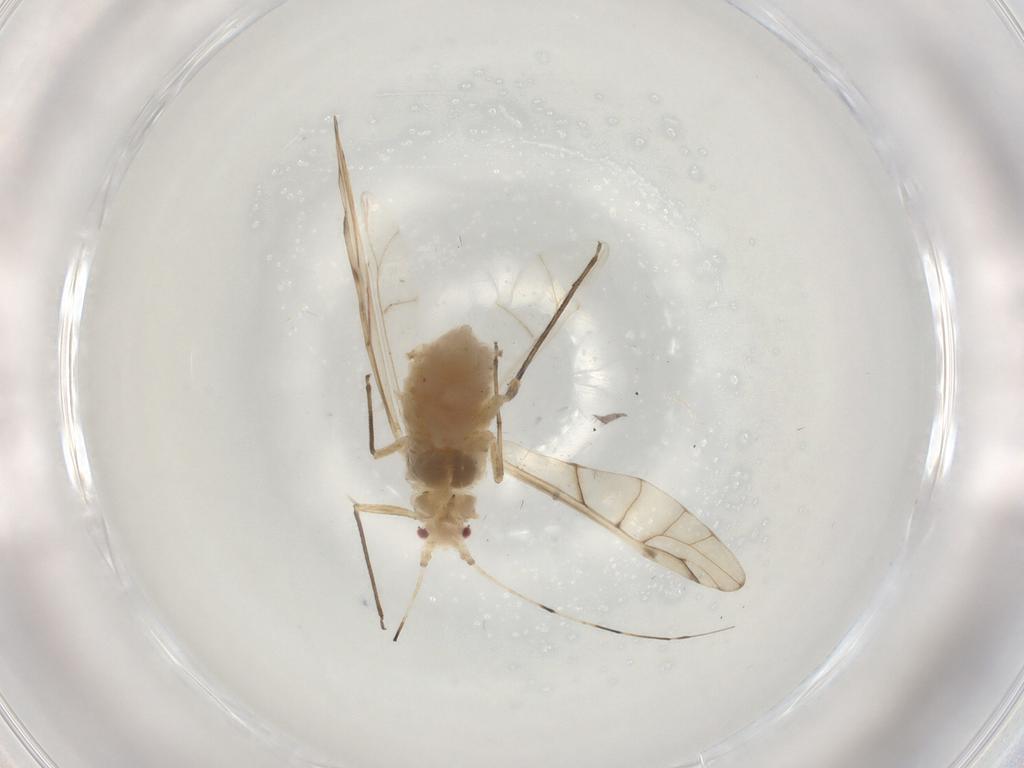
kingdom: Animalia
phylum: Arthropoda
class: Insecta
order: Hemiptera
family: Aphididae
